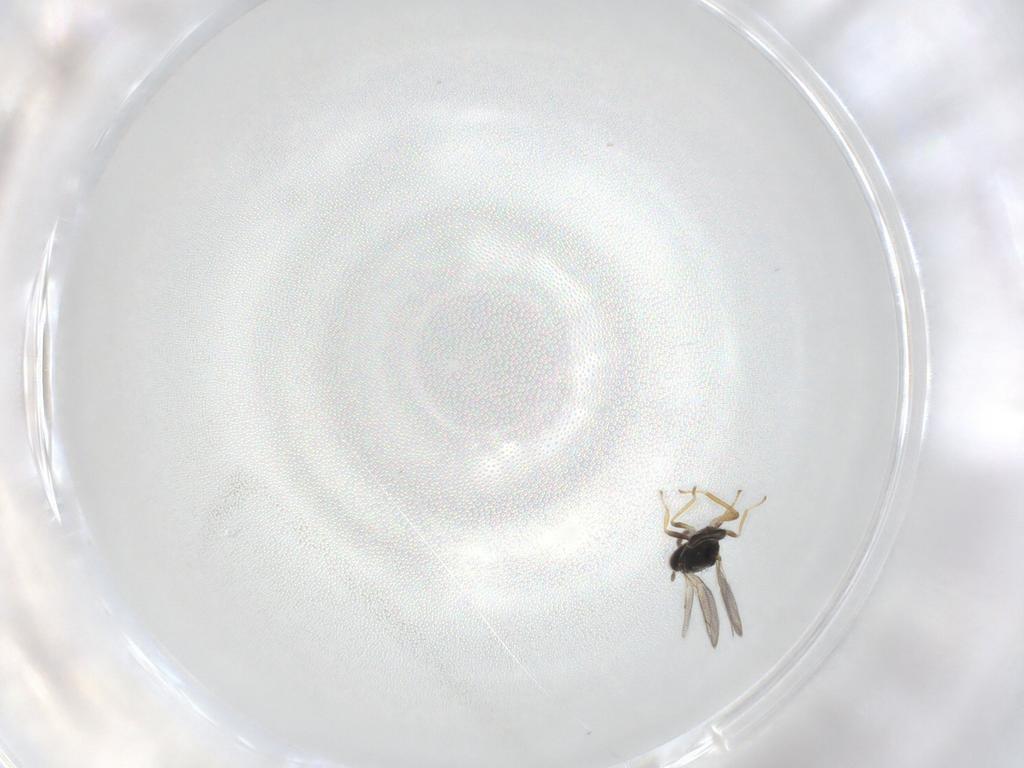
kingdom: Animalia
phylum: Arthropoda
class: Insecta
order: Hymenoptera
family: Eulophidae
